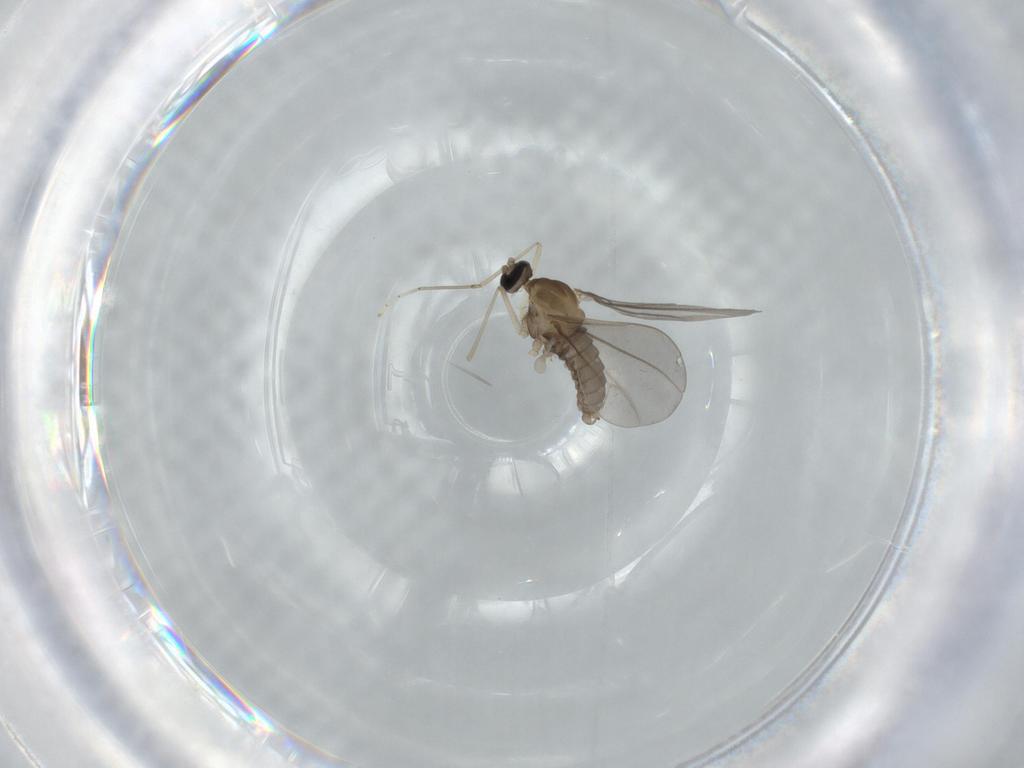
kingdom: Animalia
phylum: Arthropoda
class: Insecta
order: Diptera
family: Cecidomyiidae
